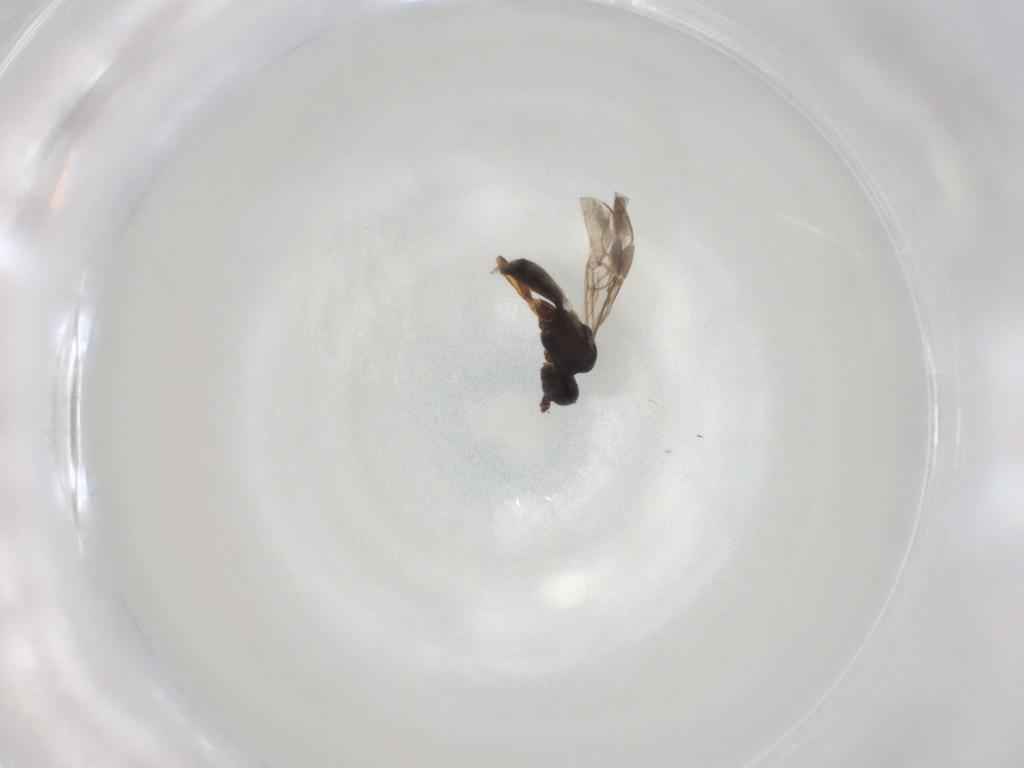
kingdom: Animalia
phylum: Arthropoda
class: Insecta
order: Hymenoptera
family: Braconidae
